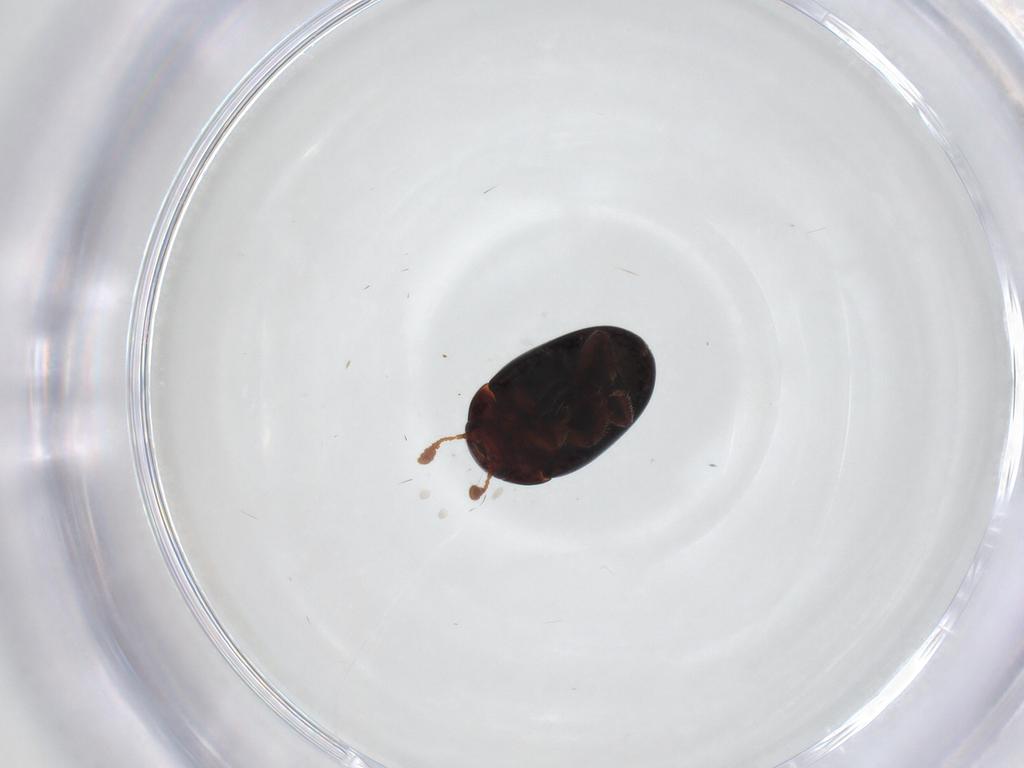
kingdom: Animalia
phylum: Arthropoda
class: Insecta
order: Coleoptera
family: Leiodidae
